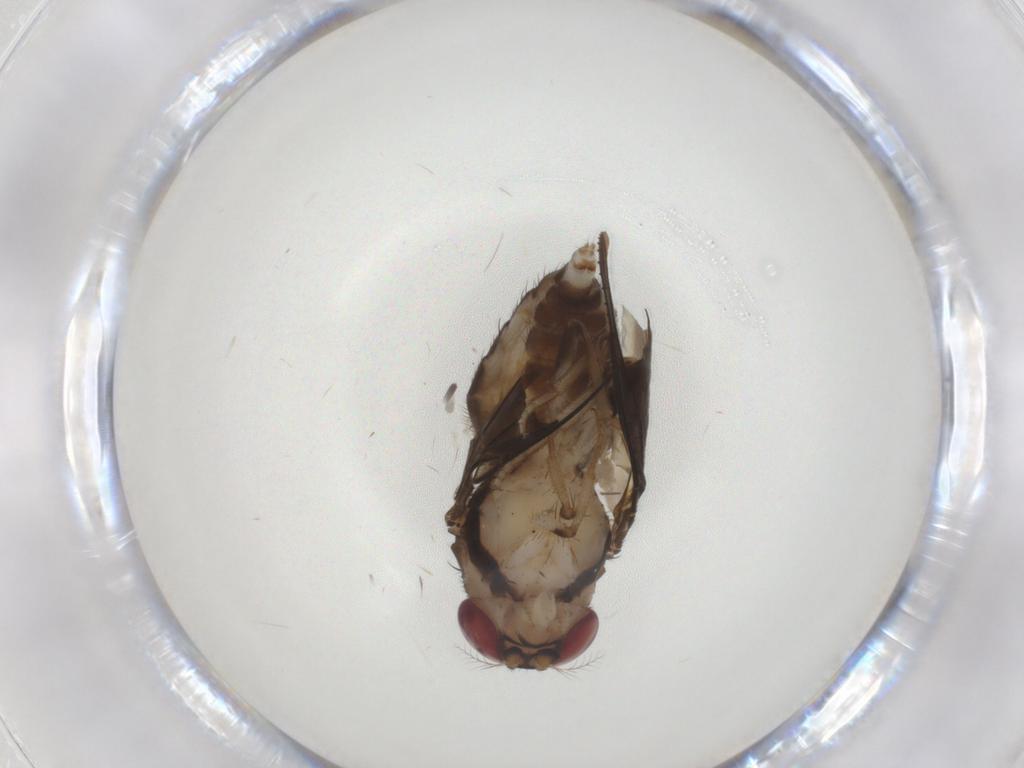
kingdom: Animalia
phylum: Arthropoda
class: Insecta
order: Diptera
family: Drosophilidae
